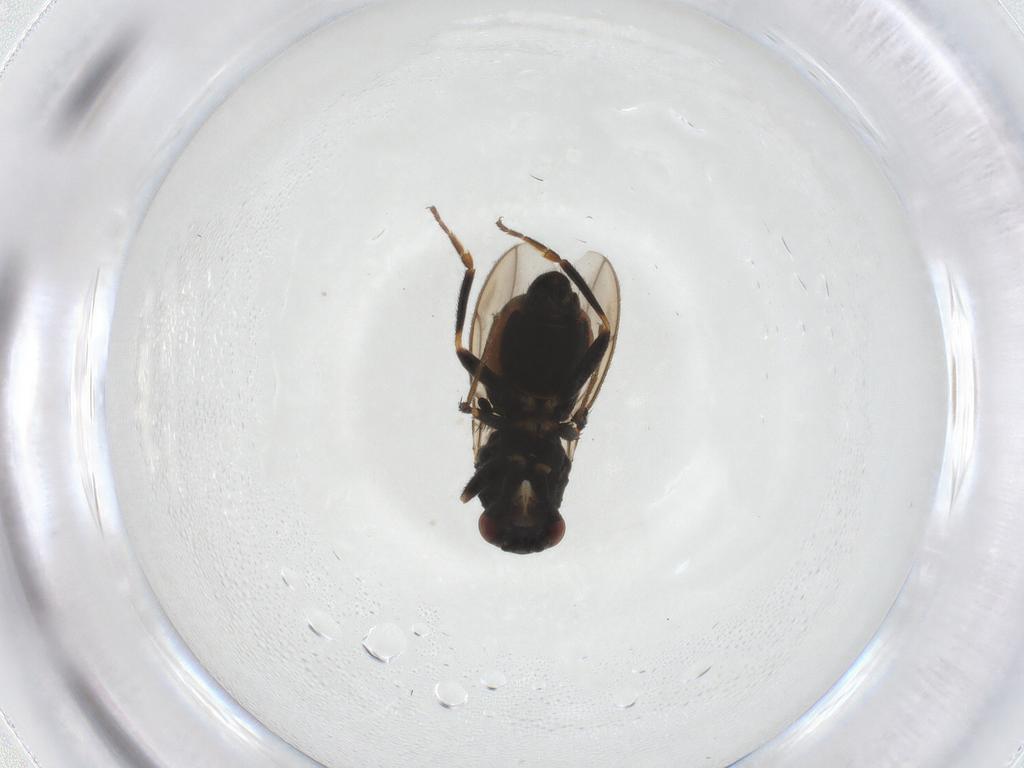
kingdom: Animalia
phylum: Arthropoda
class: Insecta
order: Diptera
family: Sphaeroceridae
